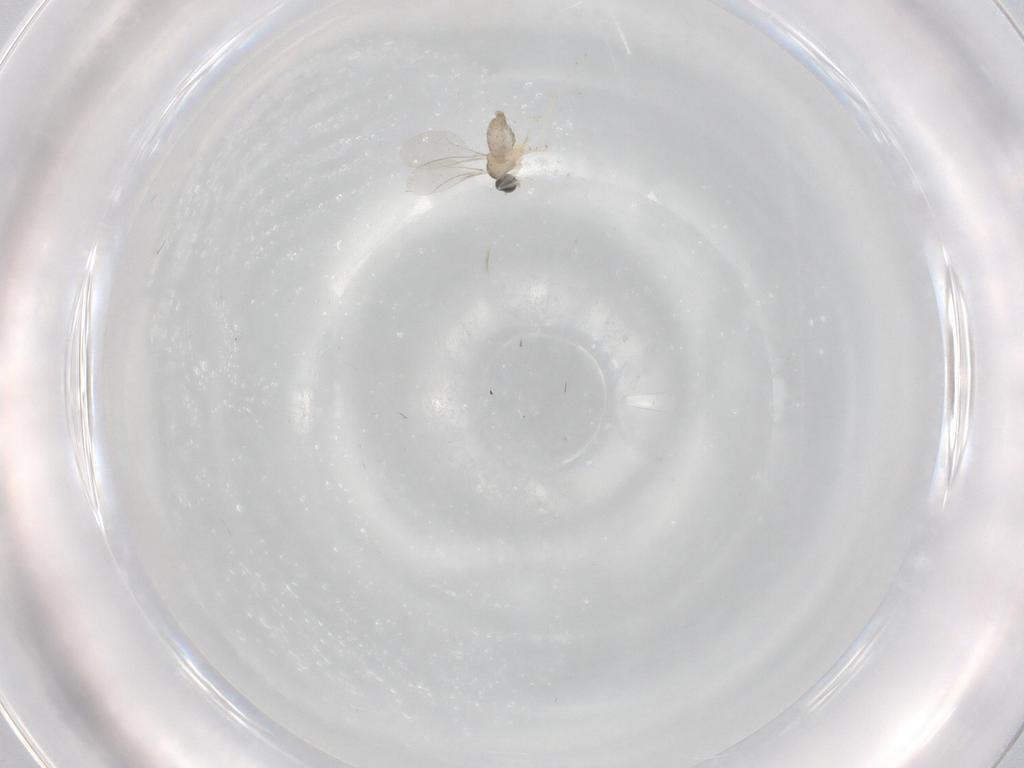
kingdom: Animalia
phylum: Arthropoda
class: Insecta
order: Diptera
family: Cecidomyiidae
